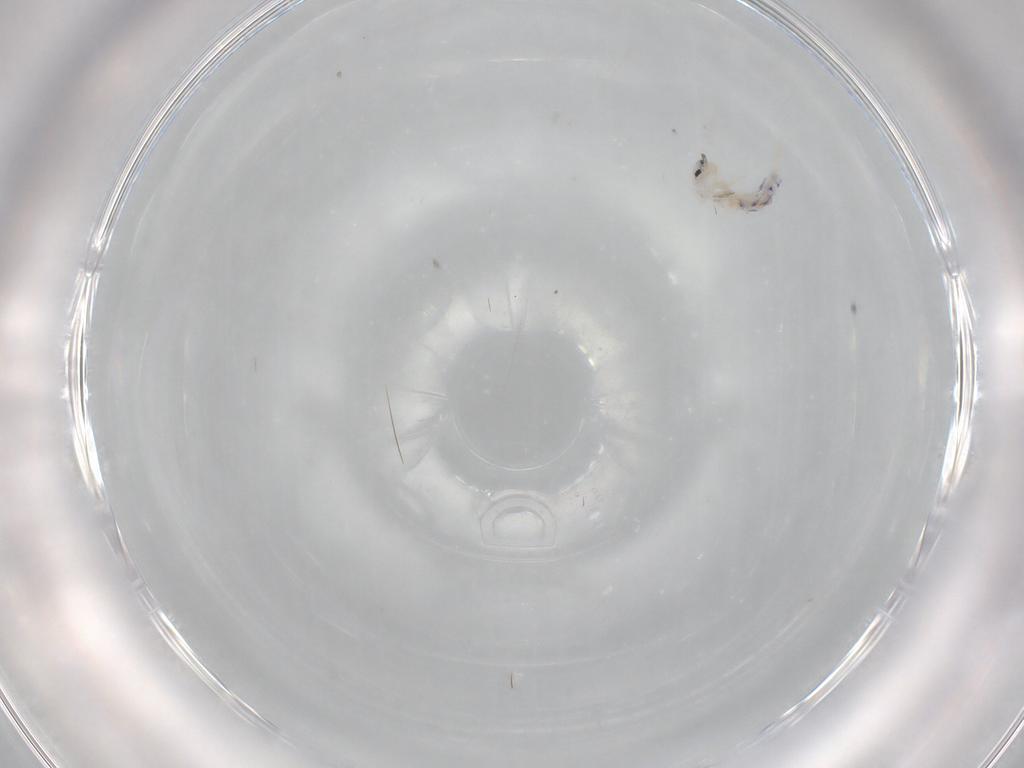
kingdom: Animalia
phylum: Arthropoda
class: Collembola
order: Entomobryomorpha
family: Entomobryidae
